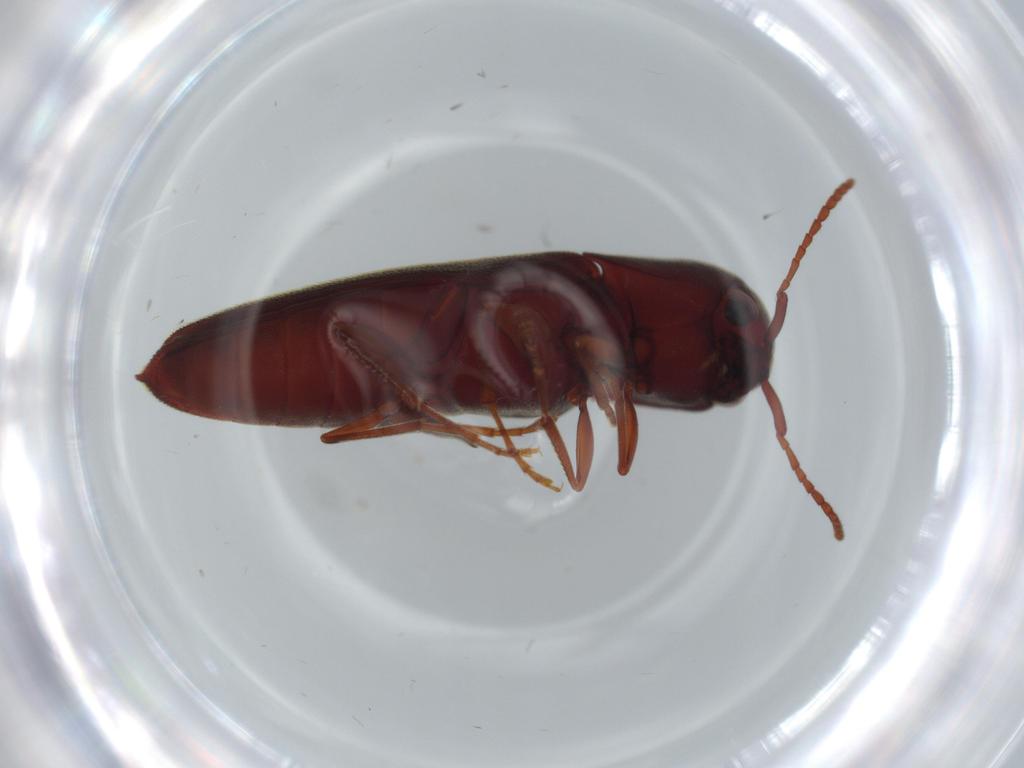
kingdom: Animalia
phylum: Arthropoda
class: Insecta
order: Coleoptera
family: Eucnemidae
